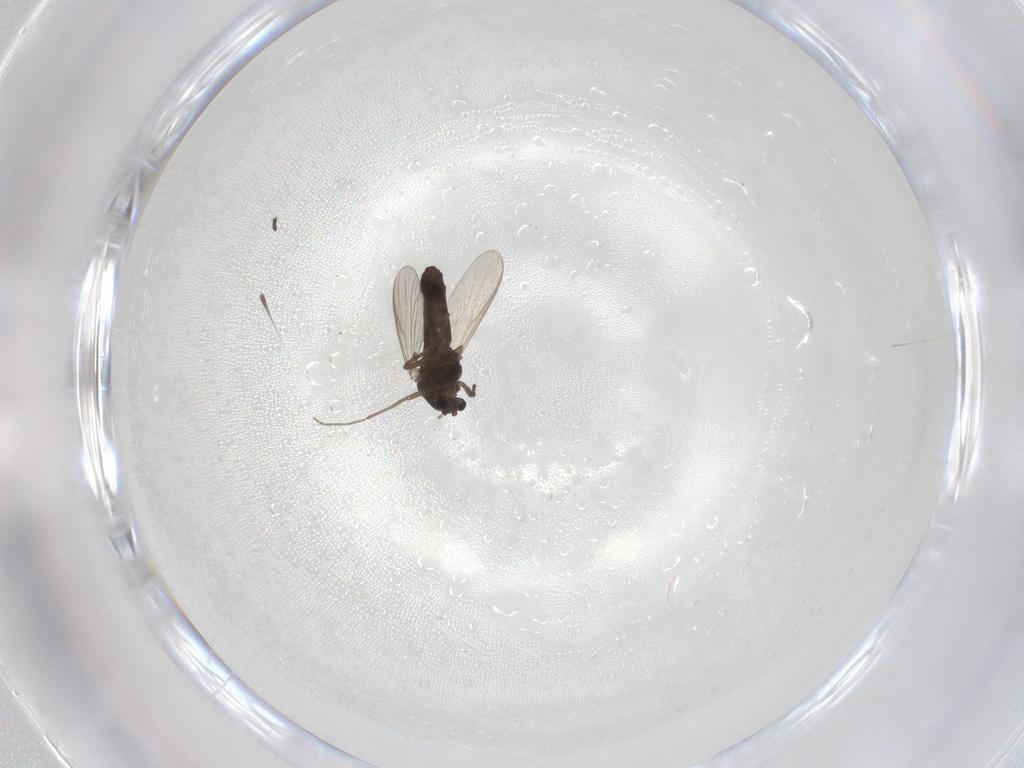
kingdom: Animalia
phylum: Arthropoda
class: Insecta
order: Diptera
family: Chironomidae
